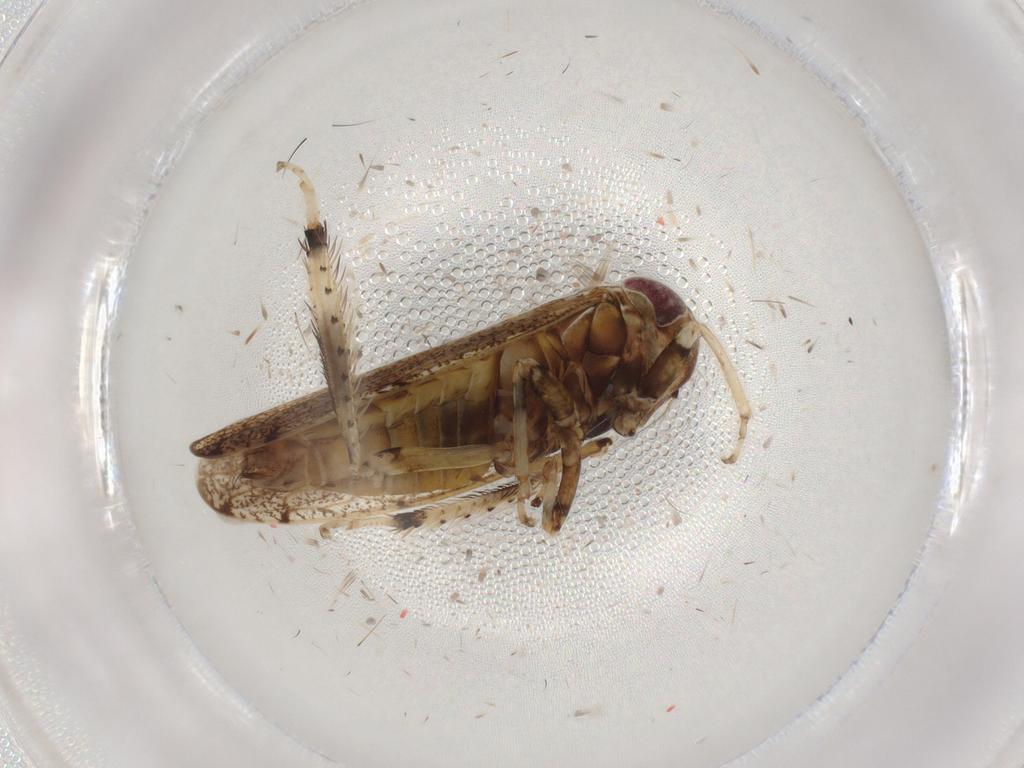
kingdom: Animalia
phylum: Arthropoda
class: Insecta
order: Hemiptera
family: Cicadellidae
